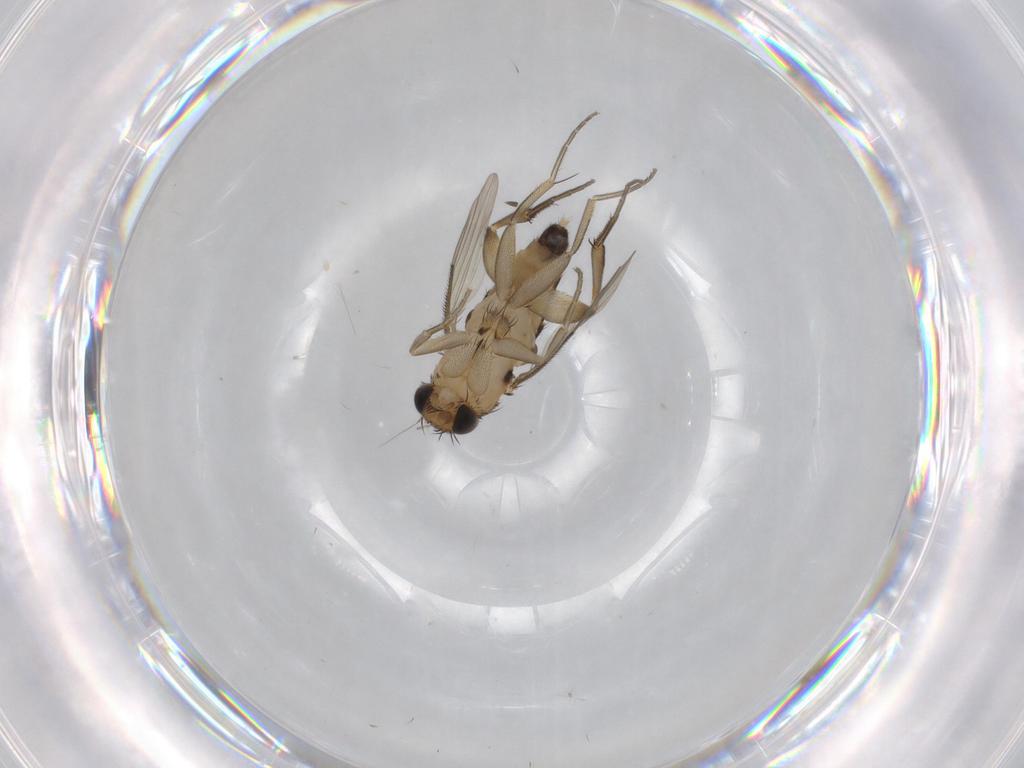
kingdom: Animalia
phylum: Arthropoda
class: Insecta
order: Diptera
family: Phoridae
